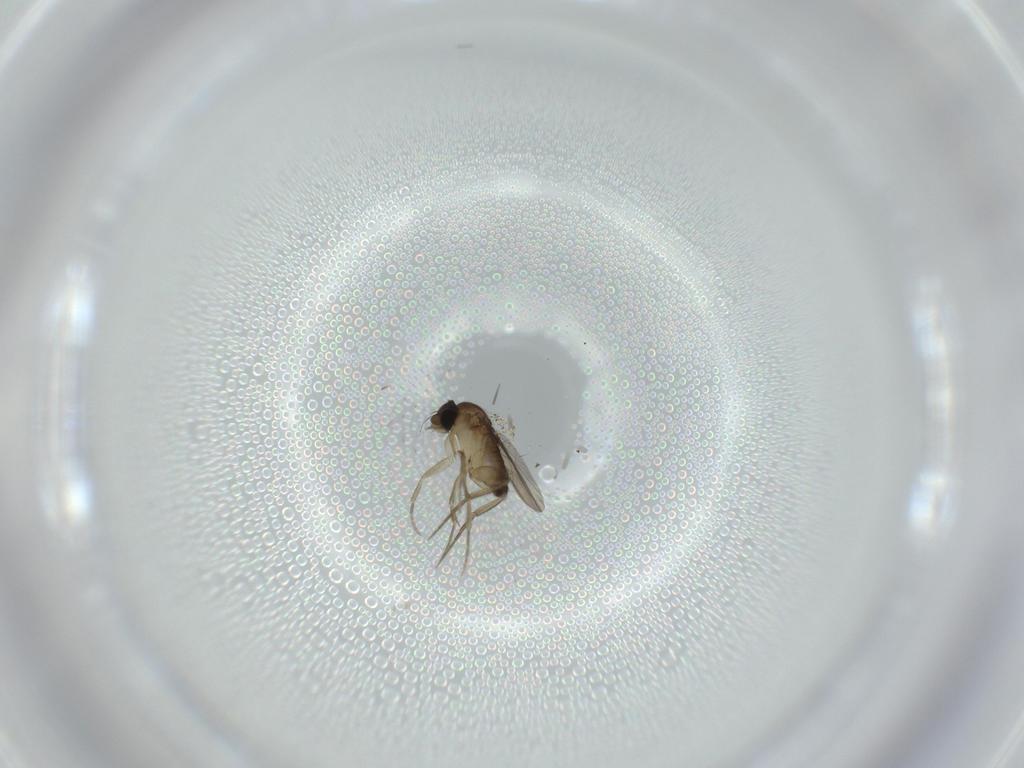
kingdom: Animalia
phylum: Arthropoda
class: Insecta
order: Diptera
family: Phoridae
